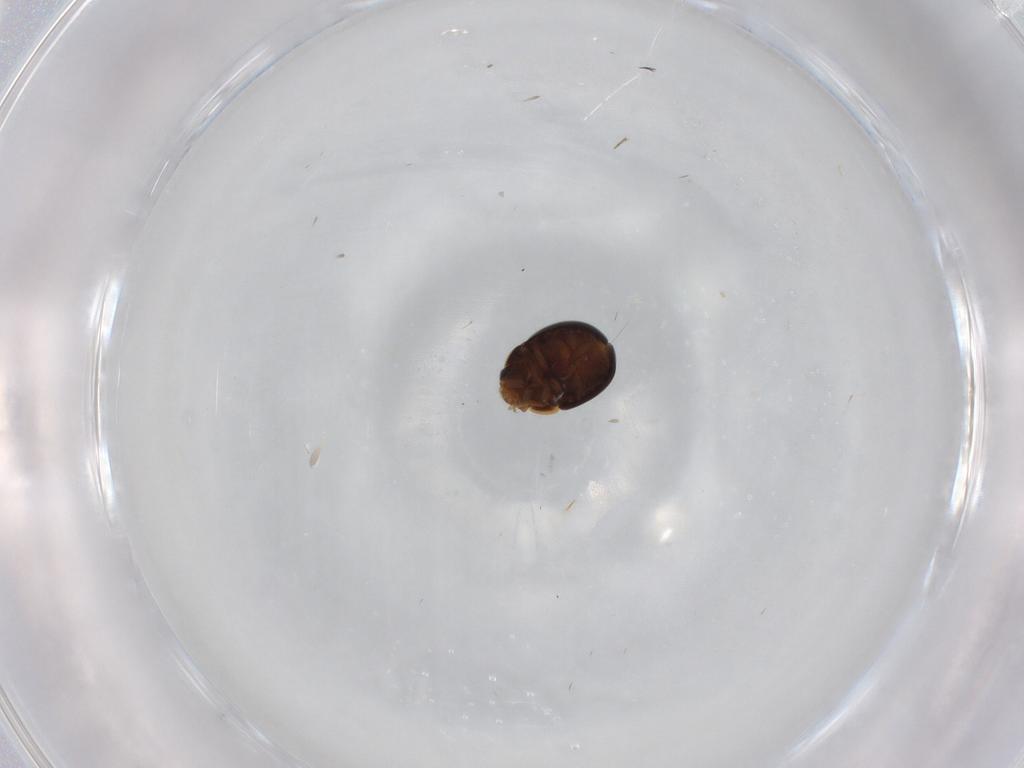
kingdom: Animalia
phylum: Arthropoda
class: Insecta
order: Coleoptera
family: Leiodidae
